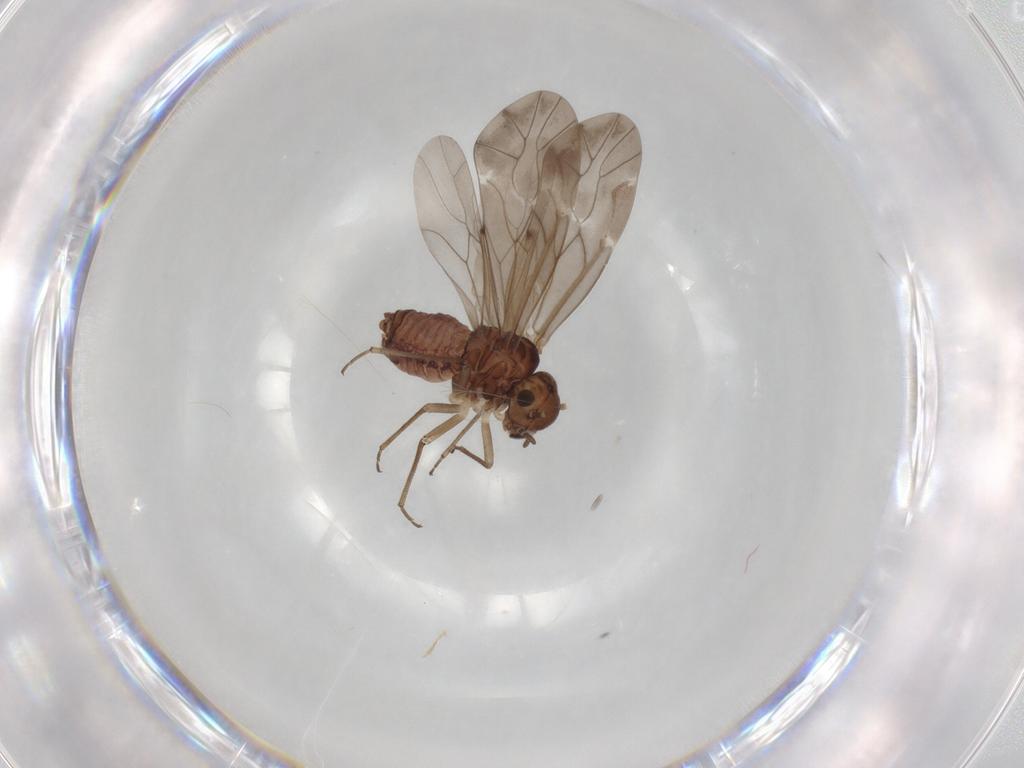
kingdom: Animalia
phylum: Arthropoda
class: Insecta
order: Psocodea
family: Peripsocidae
